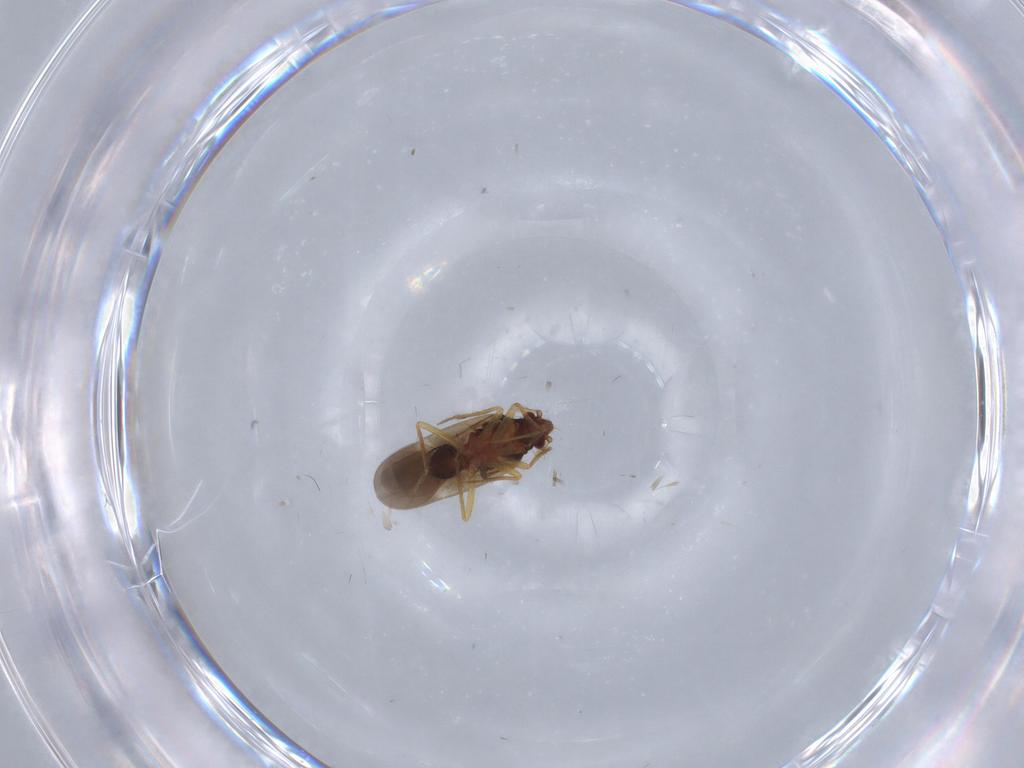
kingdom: Animalia
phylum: Arthropoda
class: Insecta
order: Hemiptera
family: Ceratocombidae
